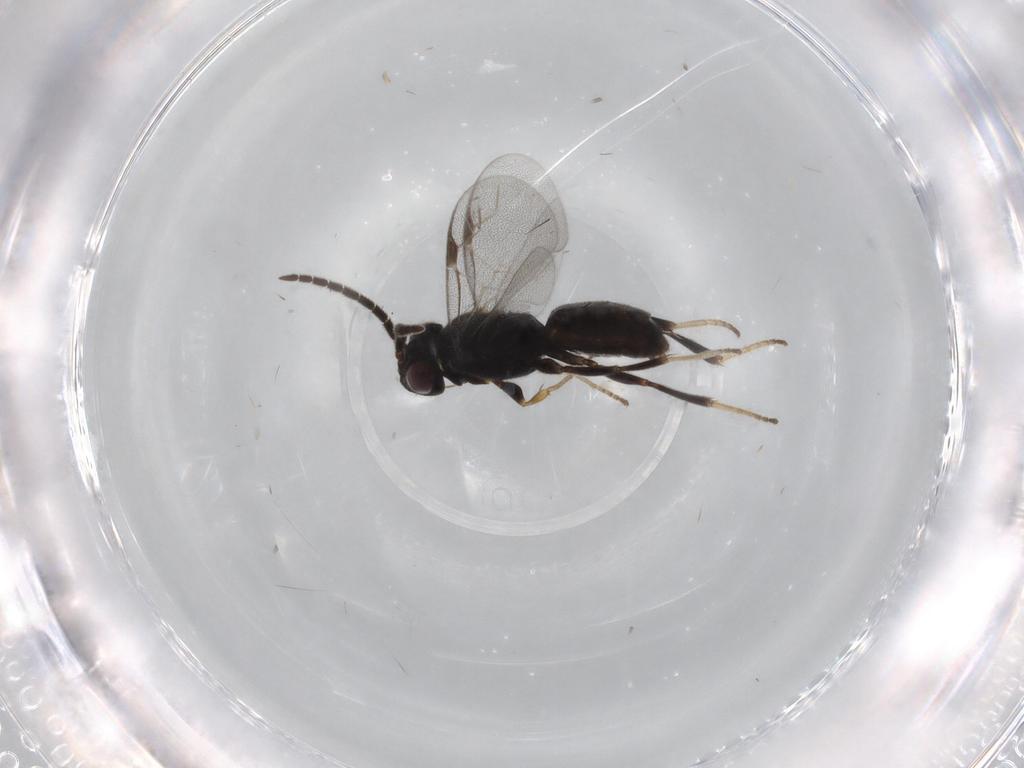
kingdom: Animalia
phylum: Arthropoda
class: Insecta
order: Hymenoptera
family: Dryinidae
